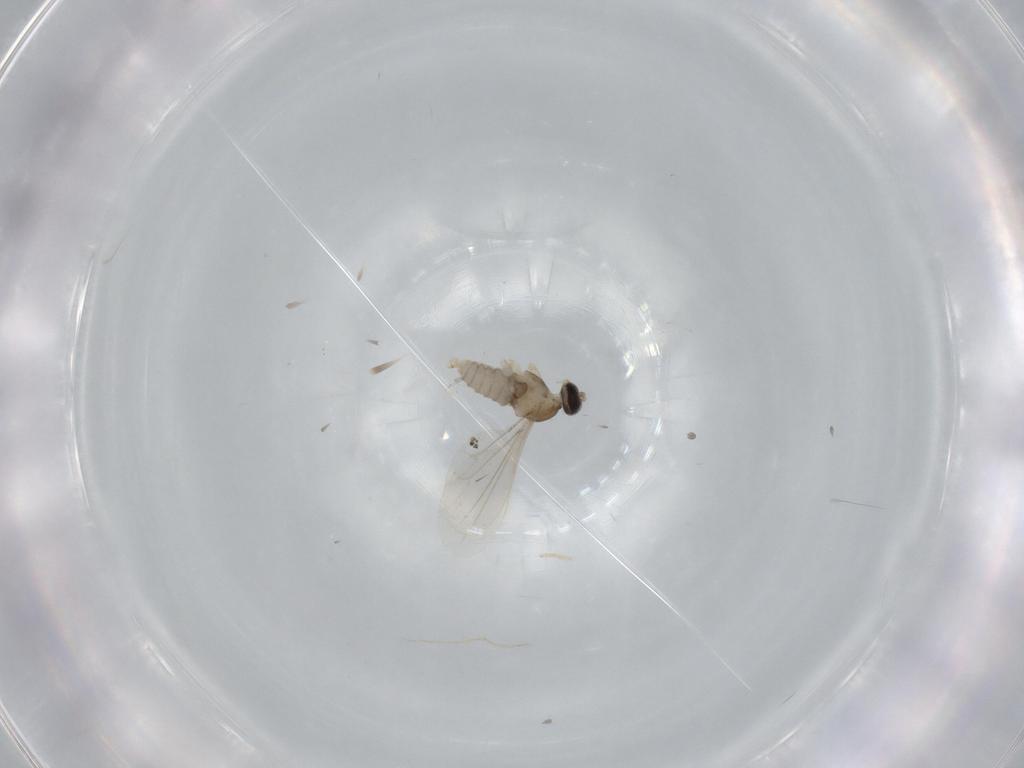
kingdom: Animalia
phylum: Arthropoda
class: Insecta
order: Diptera
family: Cecidomyiidae
